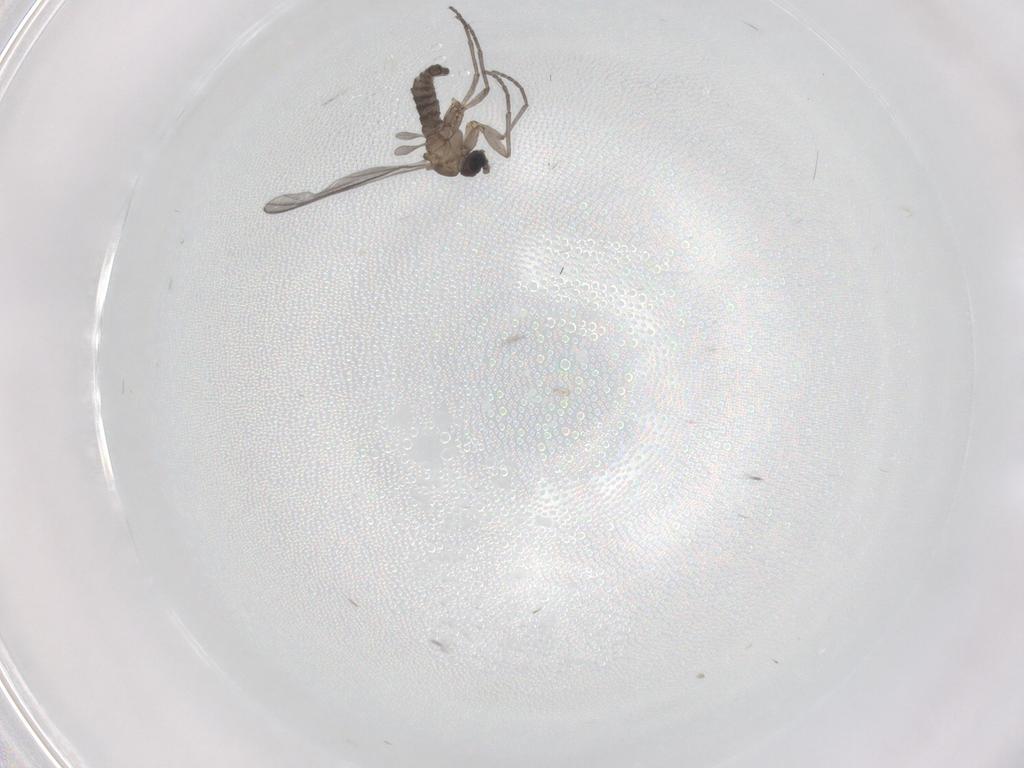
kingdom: Animalia
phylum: Arthropoda
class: Insecta
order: Diptera
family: Sciaridae
